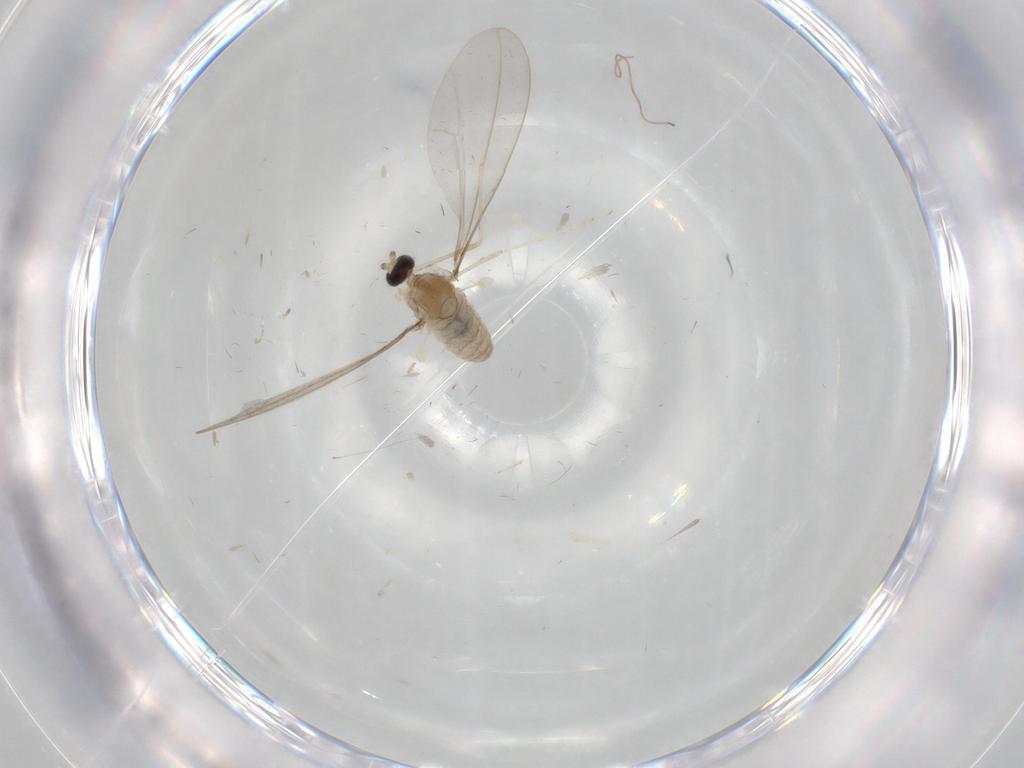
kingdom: Animalia
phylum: Arthropoda
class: Insecta
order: Diptera
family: Cecidomyiidae
